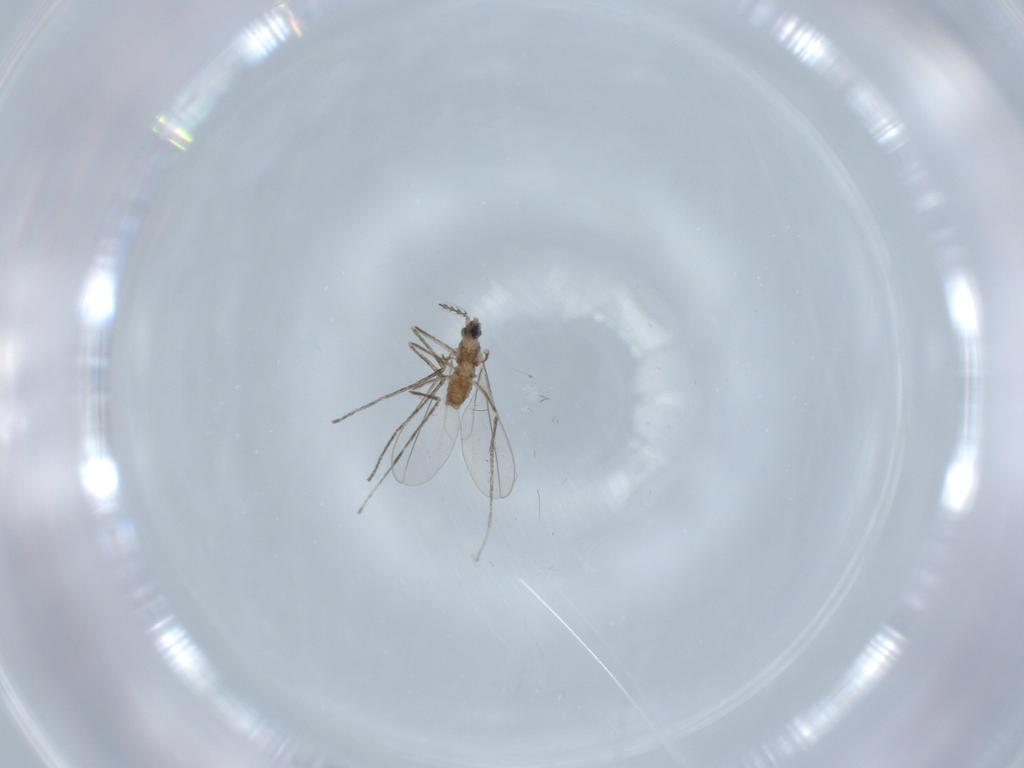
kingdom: Animalia
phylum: Arthropoda
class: Insecta
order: Diptera
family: Cecidomyiidae
